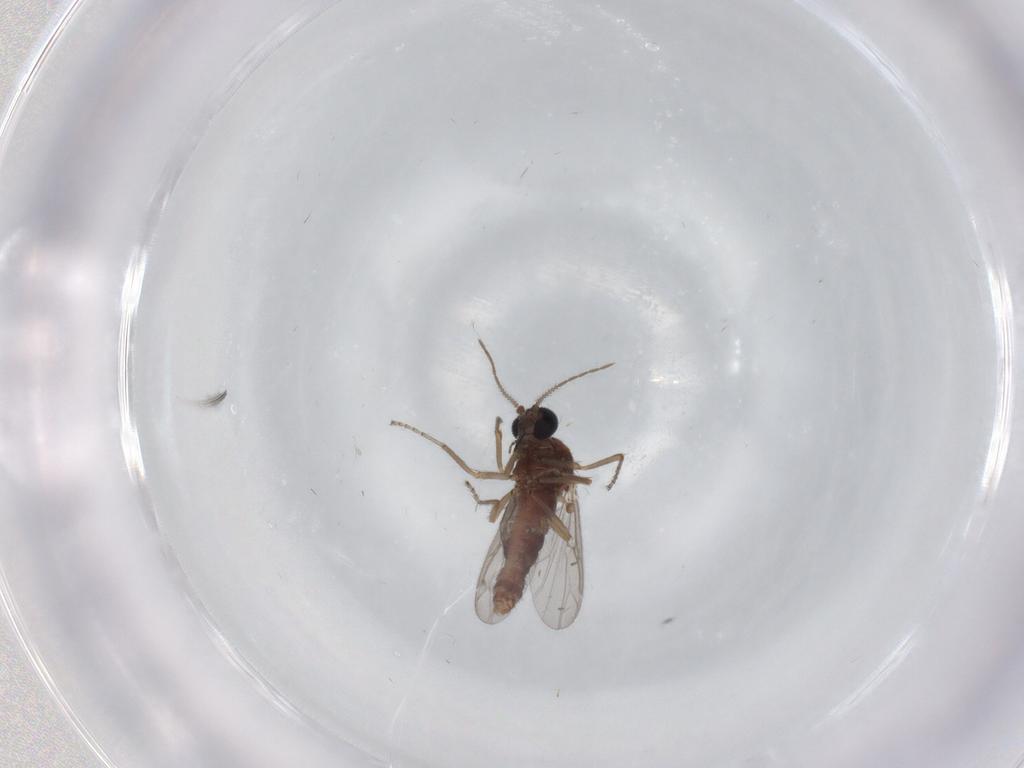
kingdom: Animalia
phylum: Arthropoda
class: Insecta
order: Diptera
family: Ceratopogonidae
